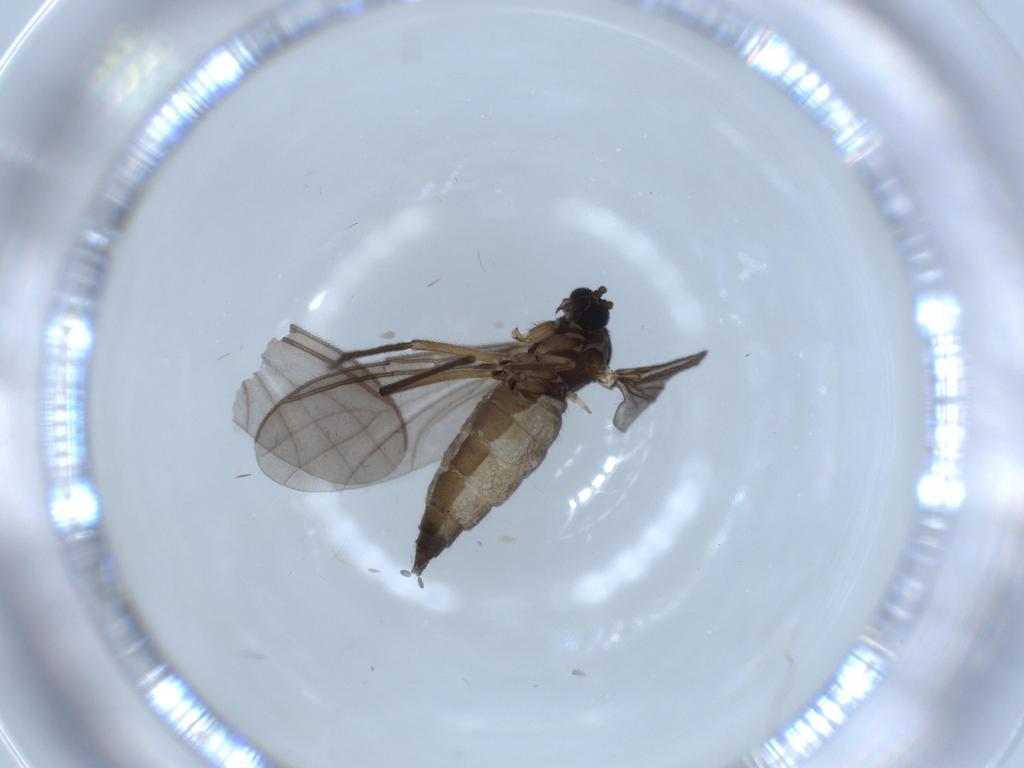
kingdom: Animalia
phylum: Arthropoda
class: Insecta
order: Diptera
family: Sciaridae
